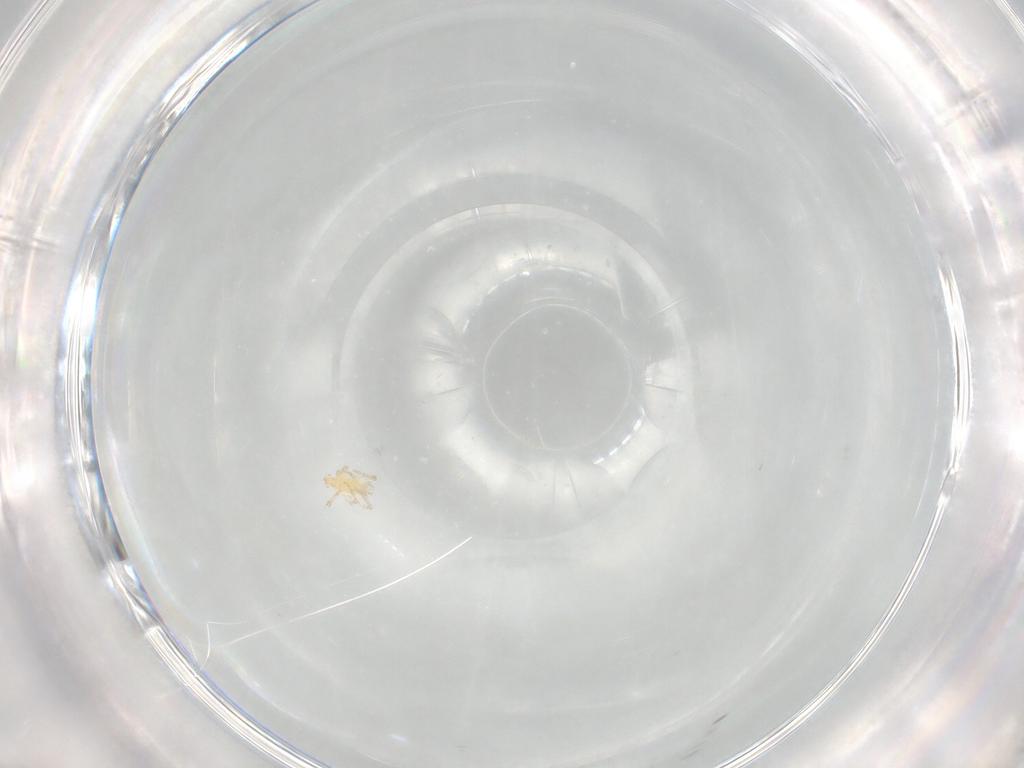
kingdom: Animalia
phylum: Arthropoda
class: Arachnida
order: Trombidiformes
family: Erythraeidae
